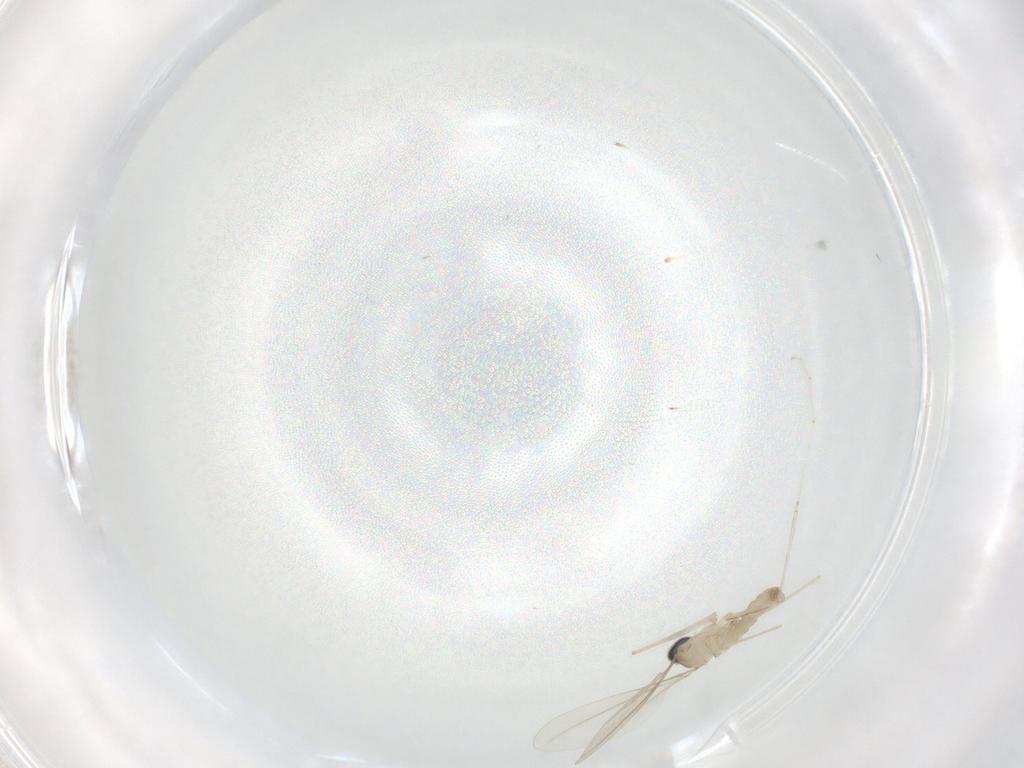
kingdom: Animalia
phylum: Arthropoda
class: Insecta
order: Diptera
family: Cecidomyiidae
